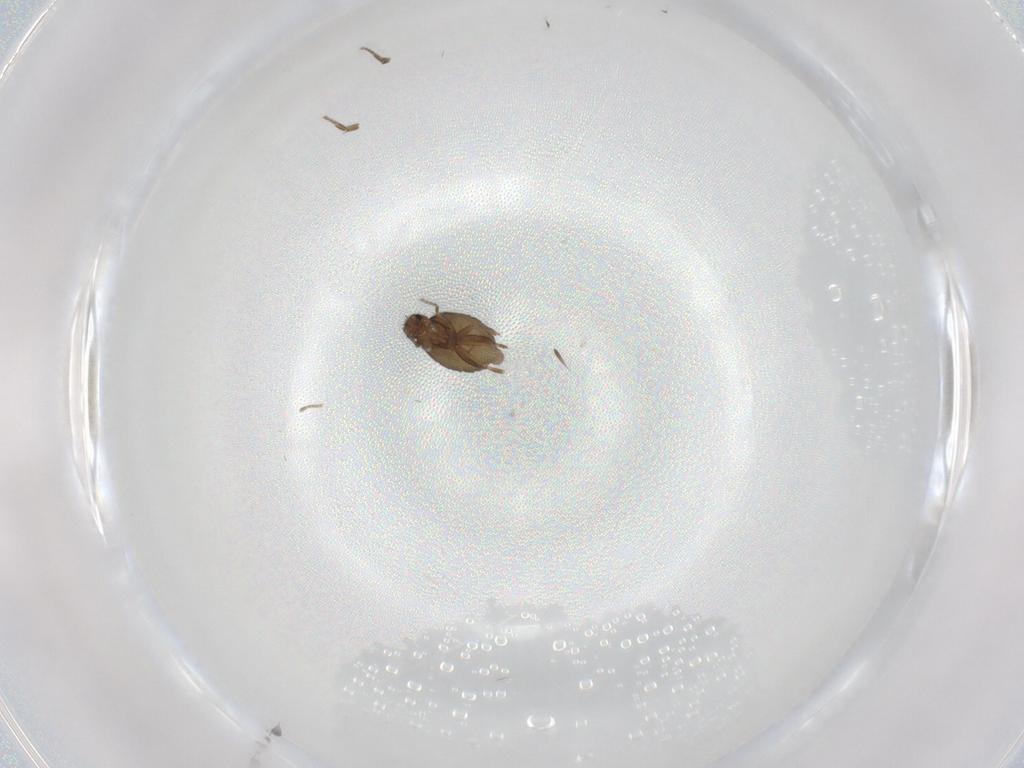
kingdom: Animalia
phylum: Arthropoda
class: Insecta
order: Diptera
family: Phoridae
